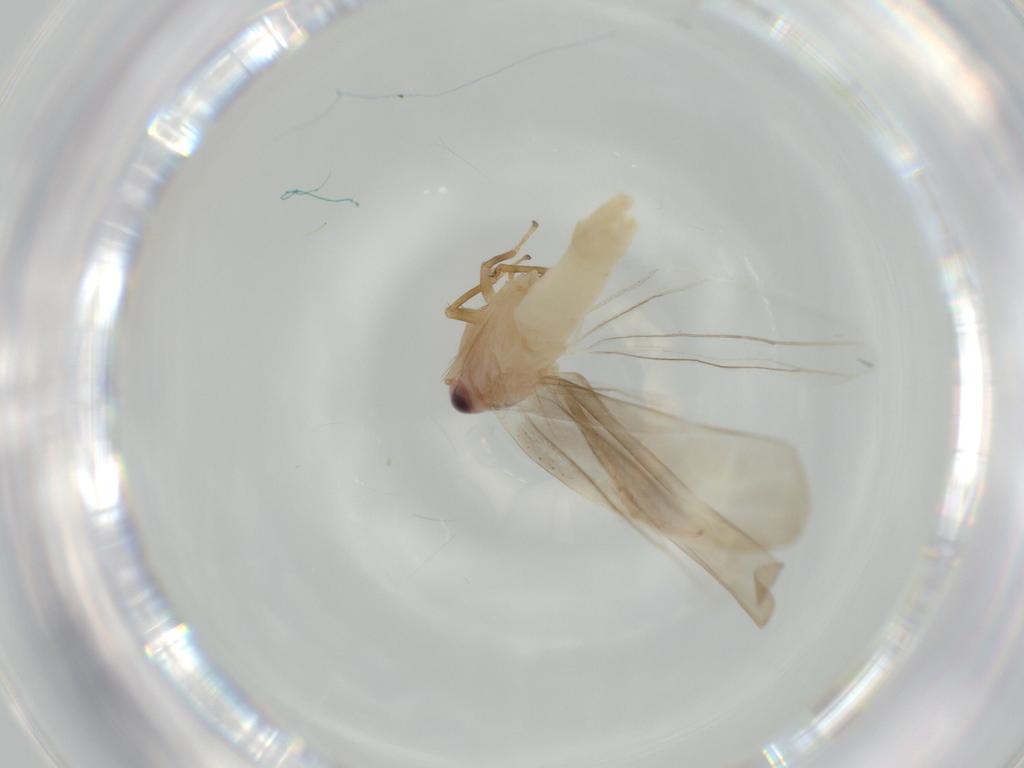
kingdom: Animalia
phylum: Arthropoda
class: Insecta
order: Hemiptera
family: Cicadellidae
